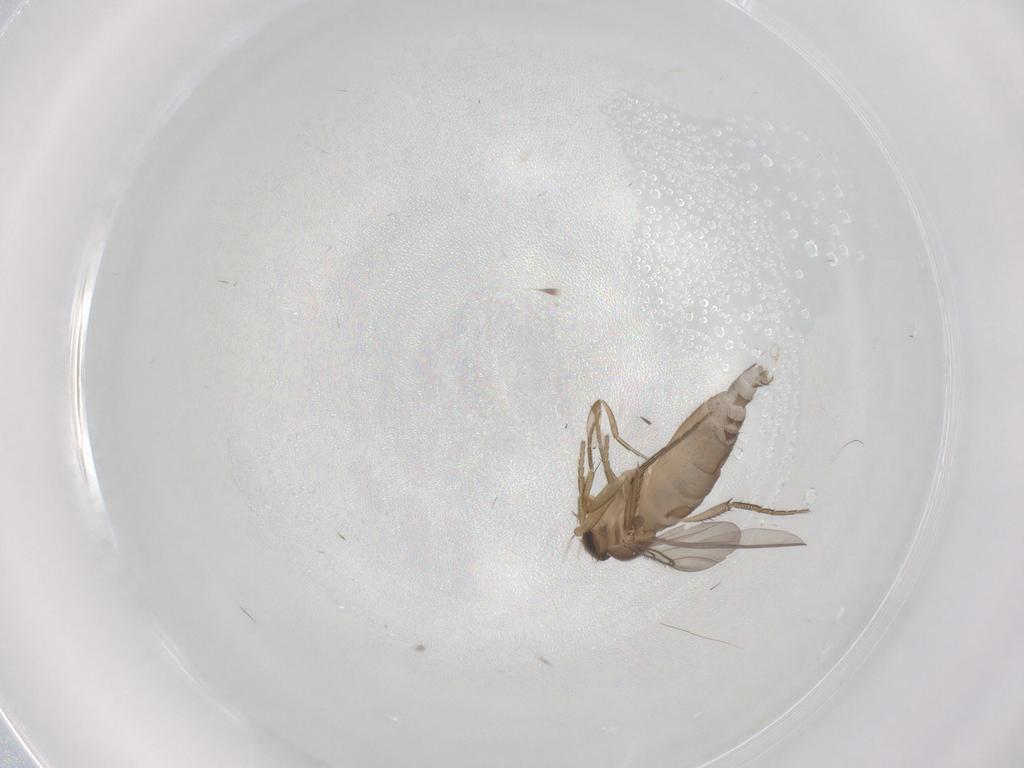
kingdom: Animalia
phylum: Arthropoda
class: Insecta
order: Diptera
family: Phoridae
